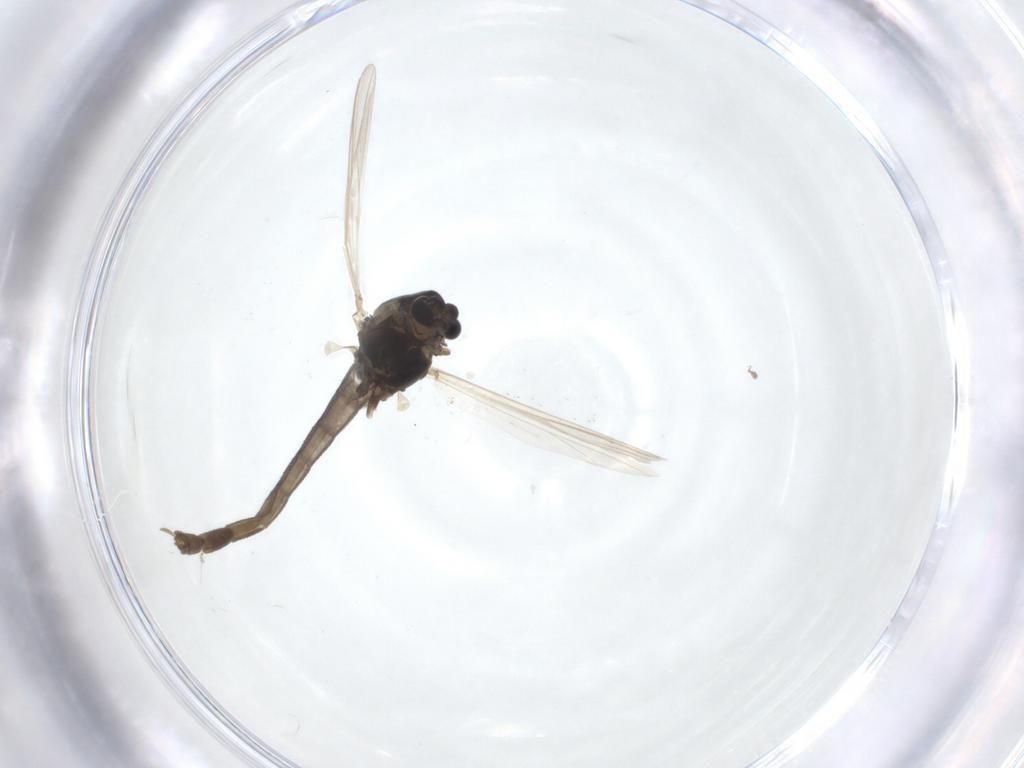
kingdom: Animalia
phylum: Arthropoda
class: Insecta
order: Diptera
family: Chironomidae
